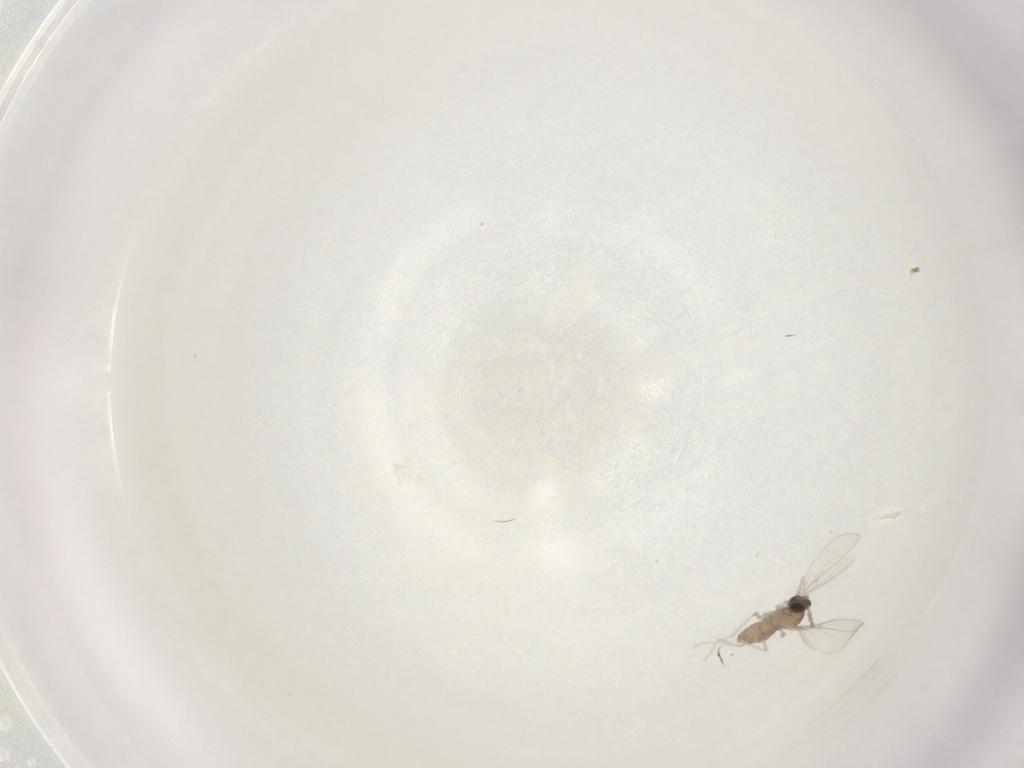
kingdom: Animalia
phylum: Arthropoda
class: Insecta
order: Diptera
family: Cecidomyiidae
